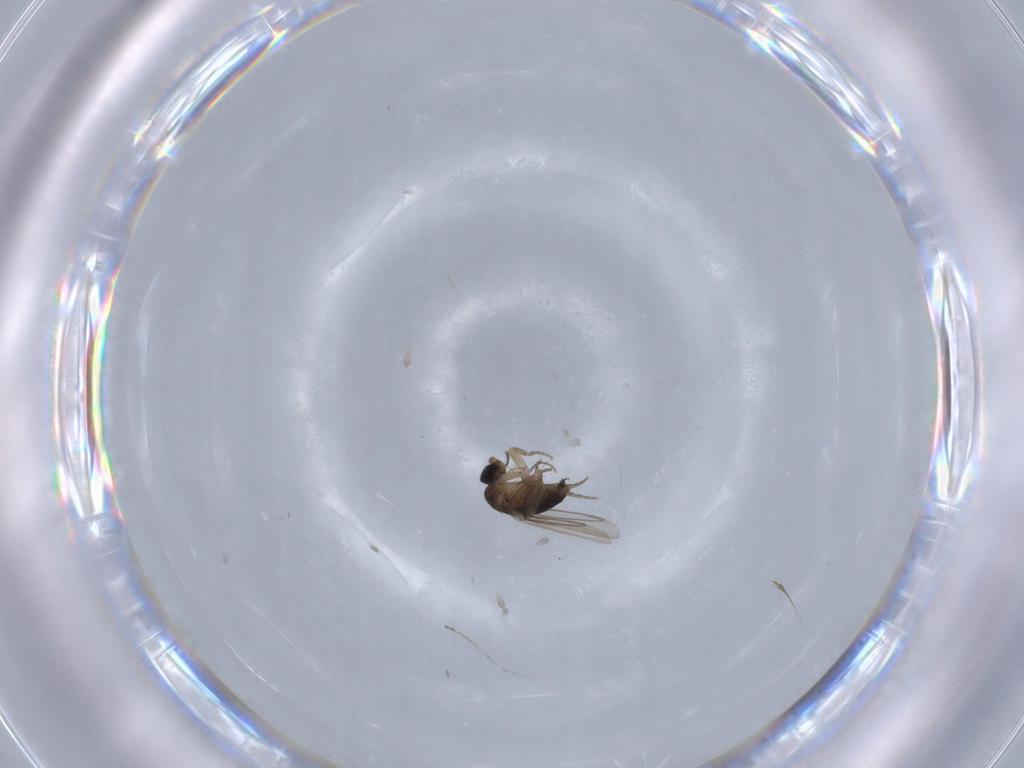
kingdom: Animalia
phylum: Arthropoda
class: Insecta
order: Diptera
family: Phoridae
